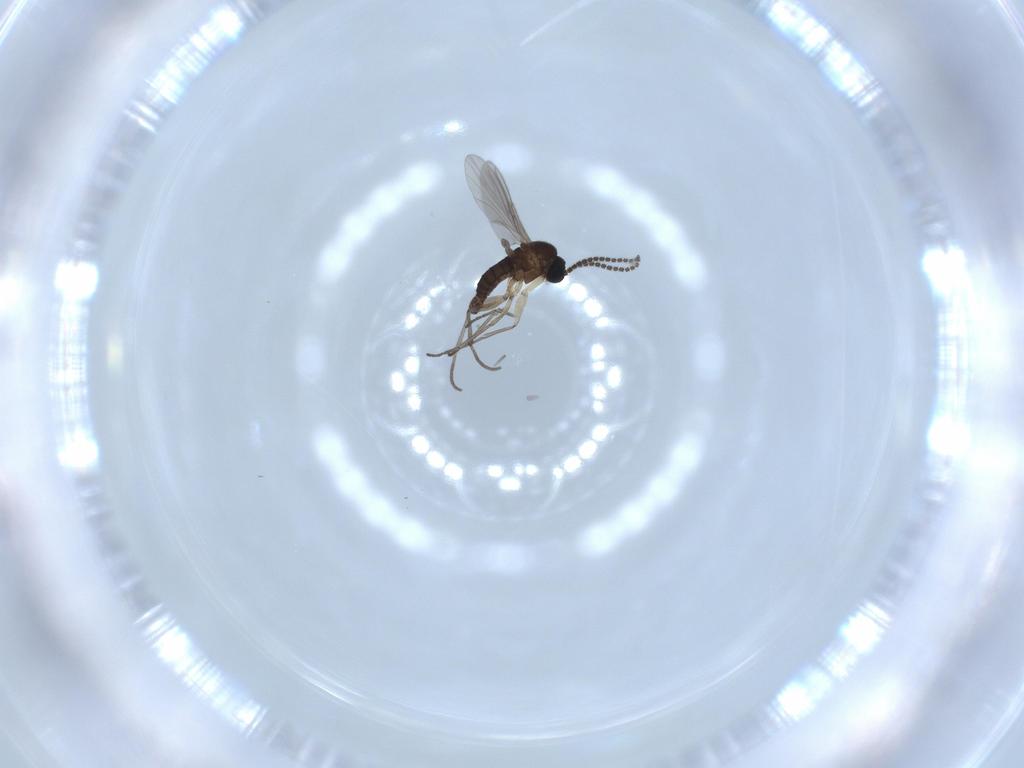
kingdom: Animalia
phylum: Arthropoda
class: Insecta
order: Diptera
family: Sciaridae
